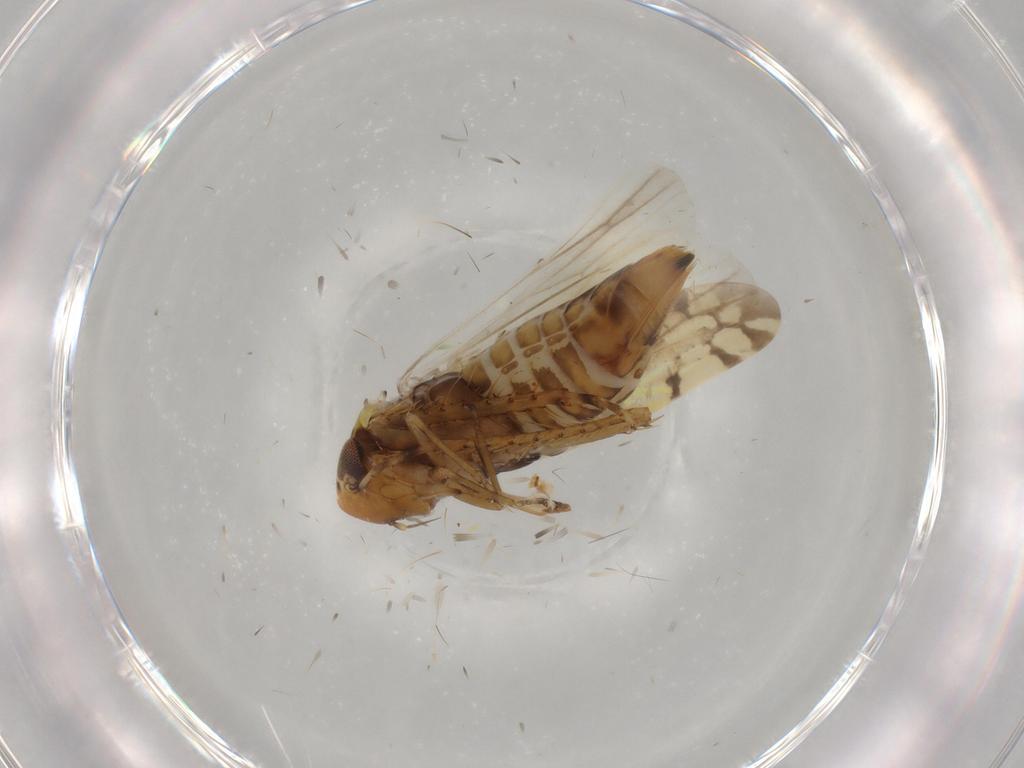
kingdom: Animalia
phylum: Arthropoda
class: Insecta
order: Hemiptera
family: Cicadellidae
